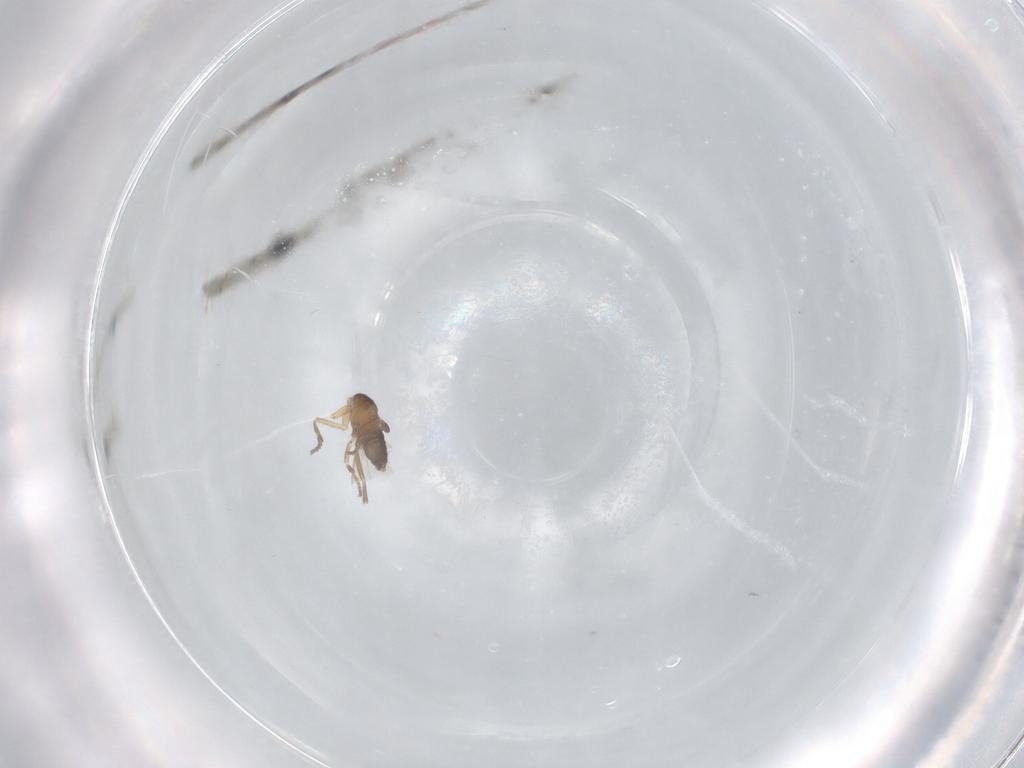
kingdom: Animalia
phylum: Arthropoda
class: Insecta
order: Diptera
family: Phoridae
